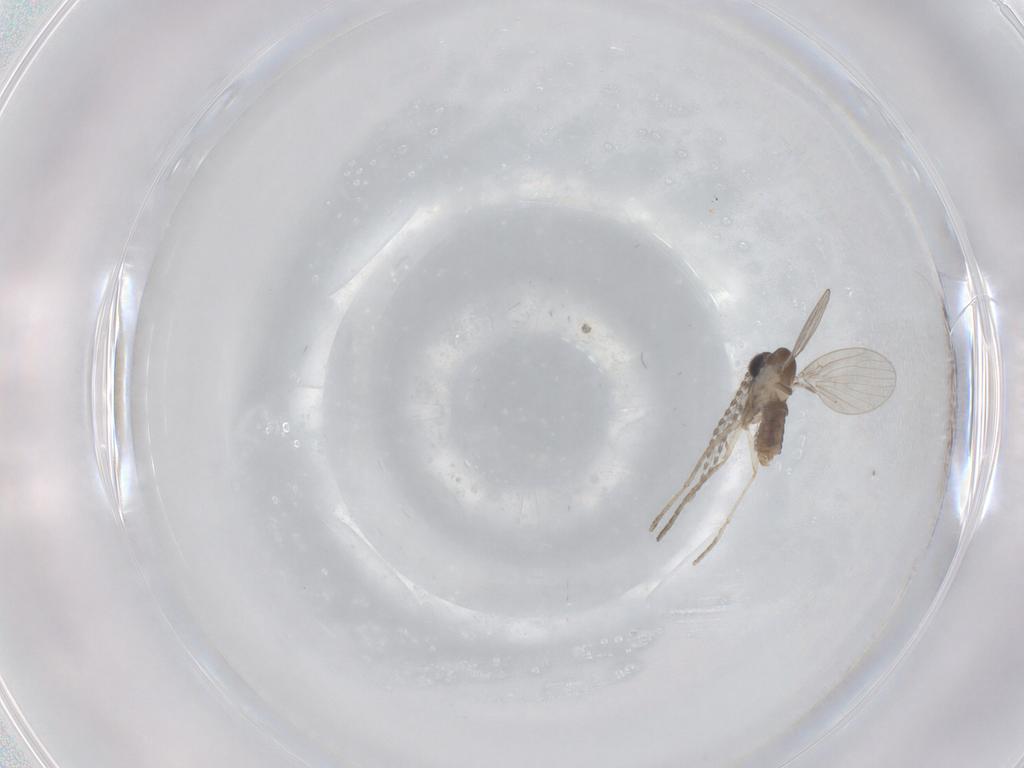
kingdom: Animalia
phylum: Arthropoda
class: Insecta
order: Diptera
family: Psychodidae
